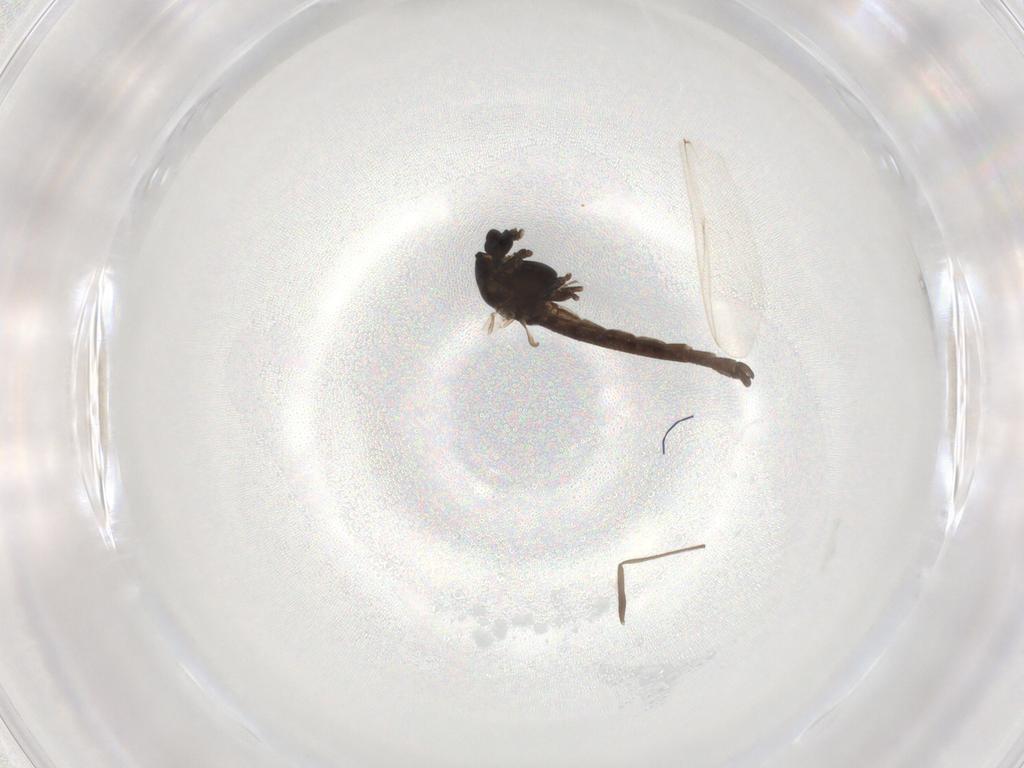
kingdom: Animalia
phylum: Arthropoda
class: Insecta
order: Diptera
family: Chironomidae
